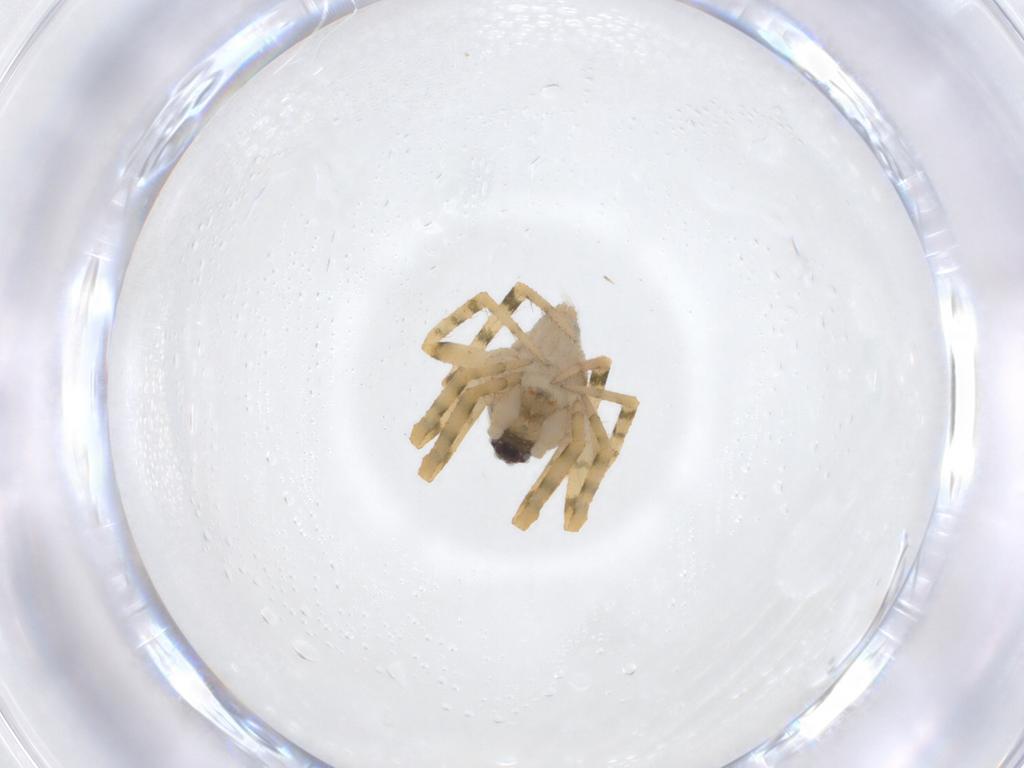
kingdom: Animalia
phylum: Arthropoda
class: Arachnida
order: Araneae
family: Theridiidae
